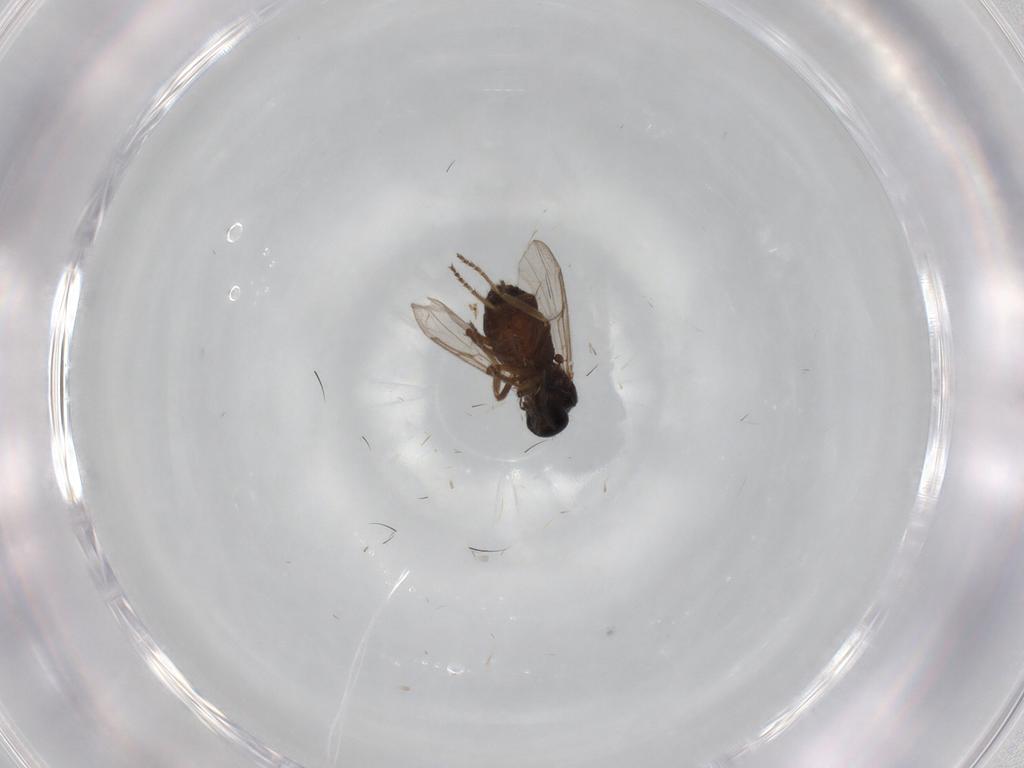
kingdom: Animalia
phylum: Arthropoda
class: Insecta
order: Diptera
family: Ceratopogonidae
